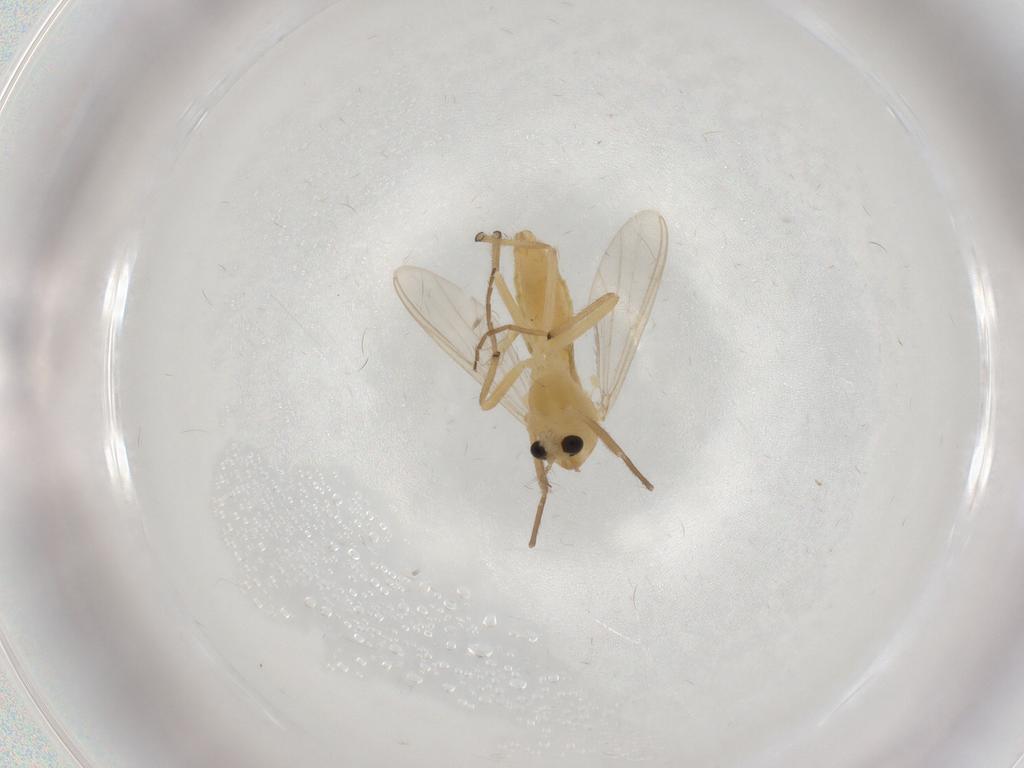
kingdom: Animalia
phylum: Arthropoda
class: Insecta
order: Diptera
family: Chironomidae
